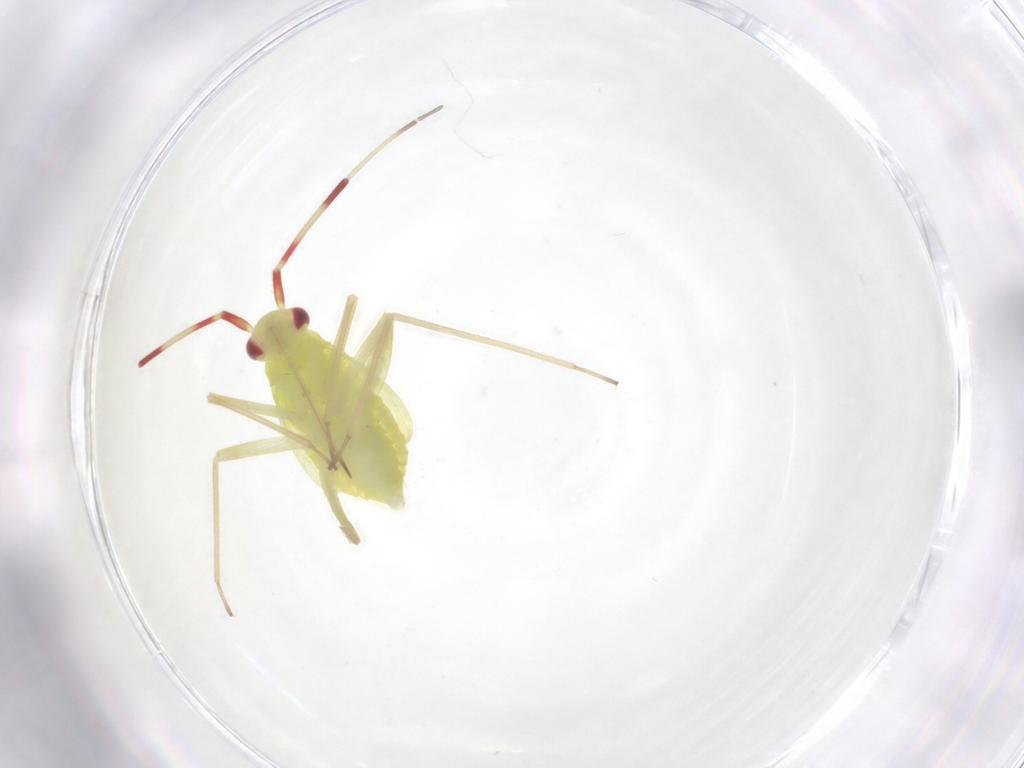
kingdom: Animalia
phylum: Arthropoda
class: Insecta
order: Hemiptera
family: Miridae
